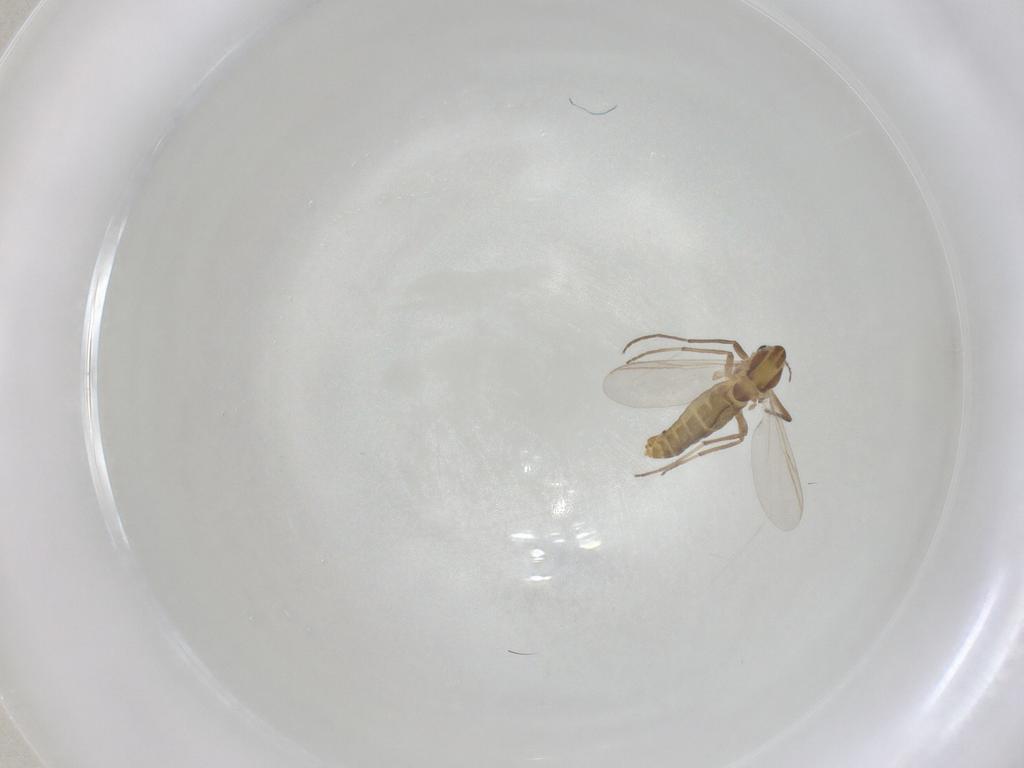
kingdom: Animalia
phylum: Arthropoda
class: Insecta
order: Diptera
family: Chironomidae
